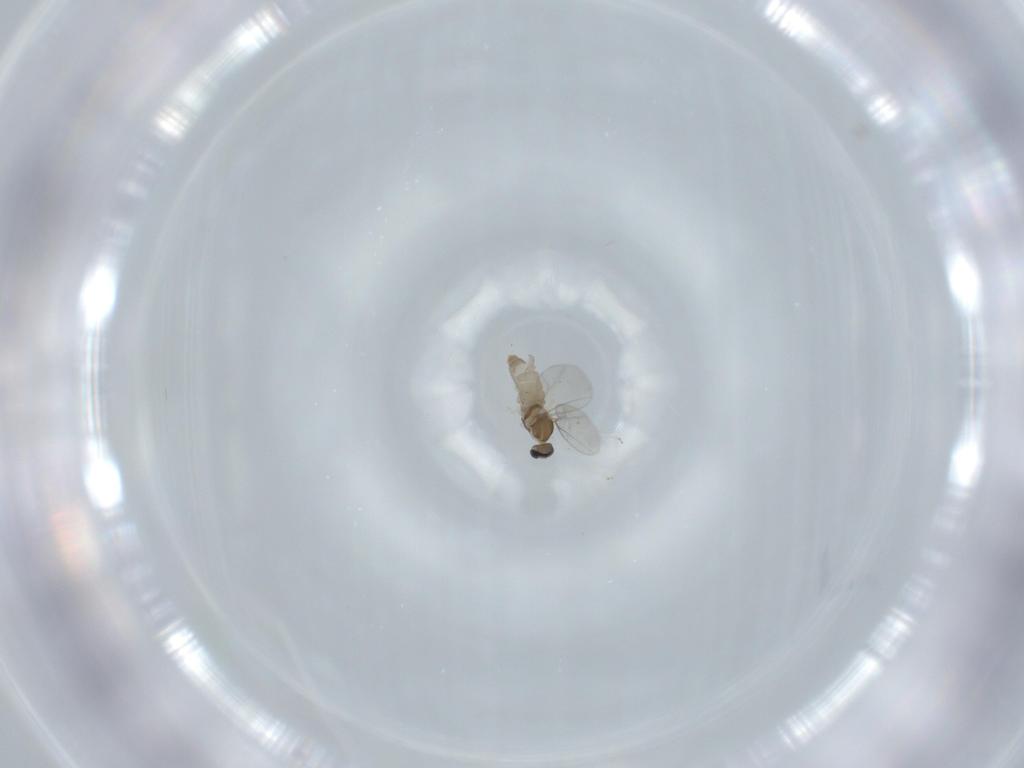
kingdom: Animalia
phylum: Arthropoda
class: Insecta
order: Diptera
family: Cecidomyiidae
